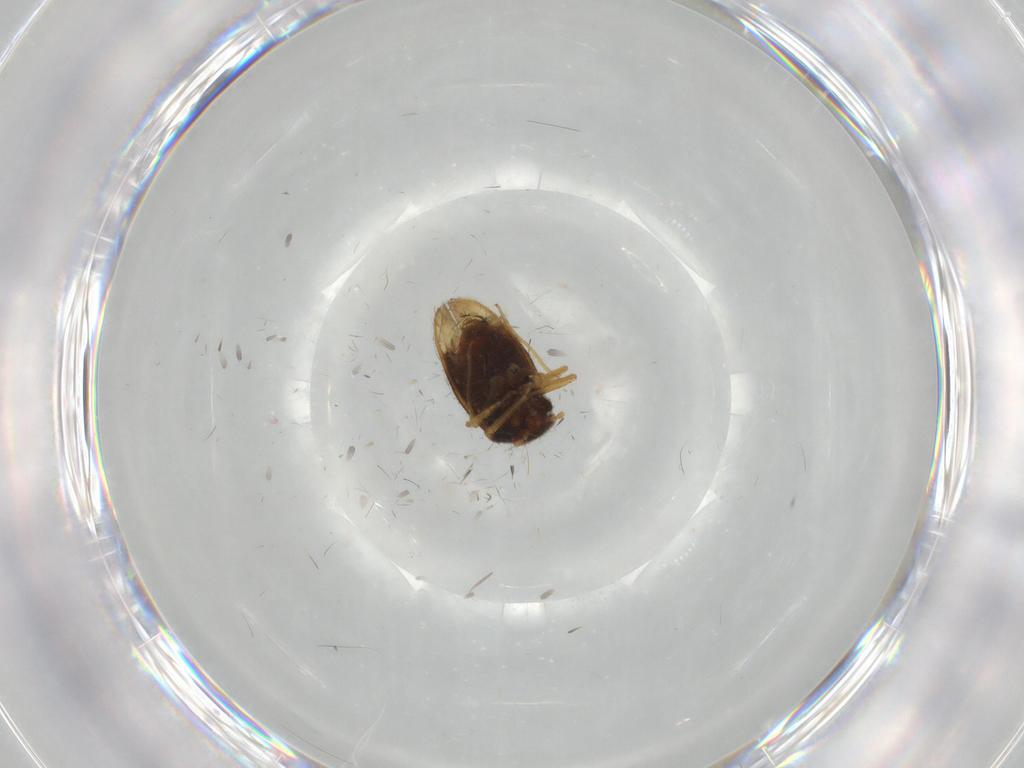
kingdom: Animalia
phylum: Arthropoda
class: Insecta
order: Hemiptera
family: Schizopteridae
